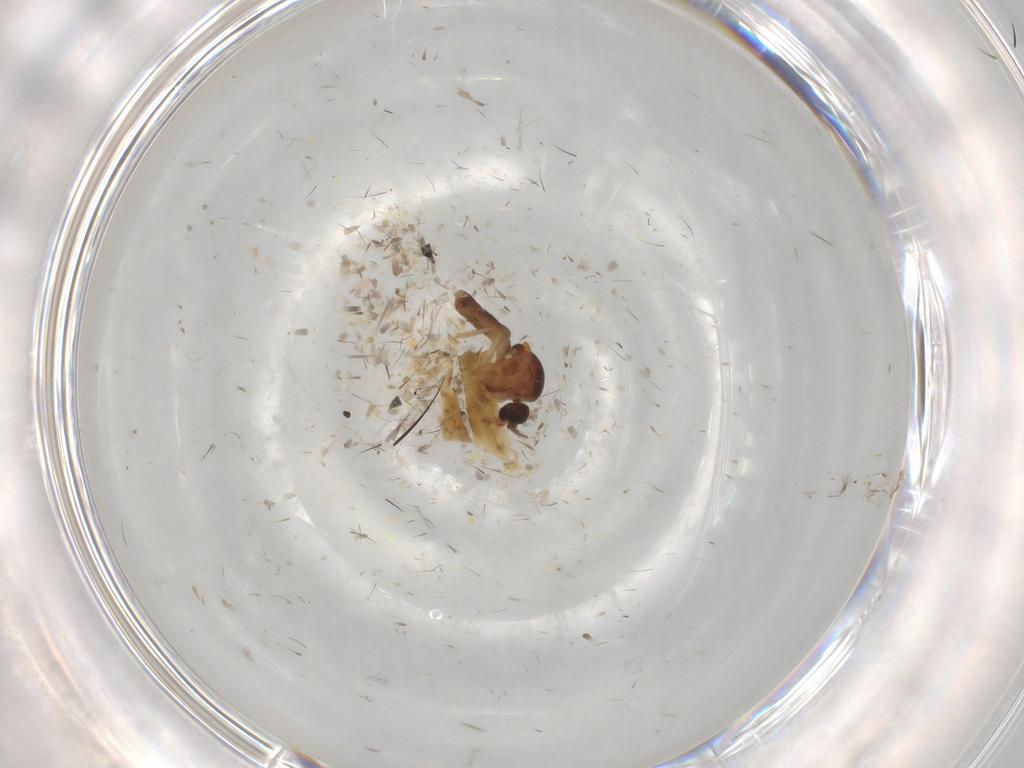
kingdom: Animalia
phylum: Arthropoda
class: Insecta
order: Diptera
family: Muscidae
